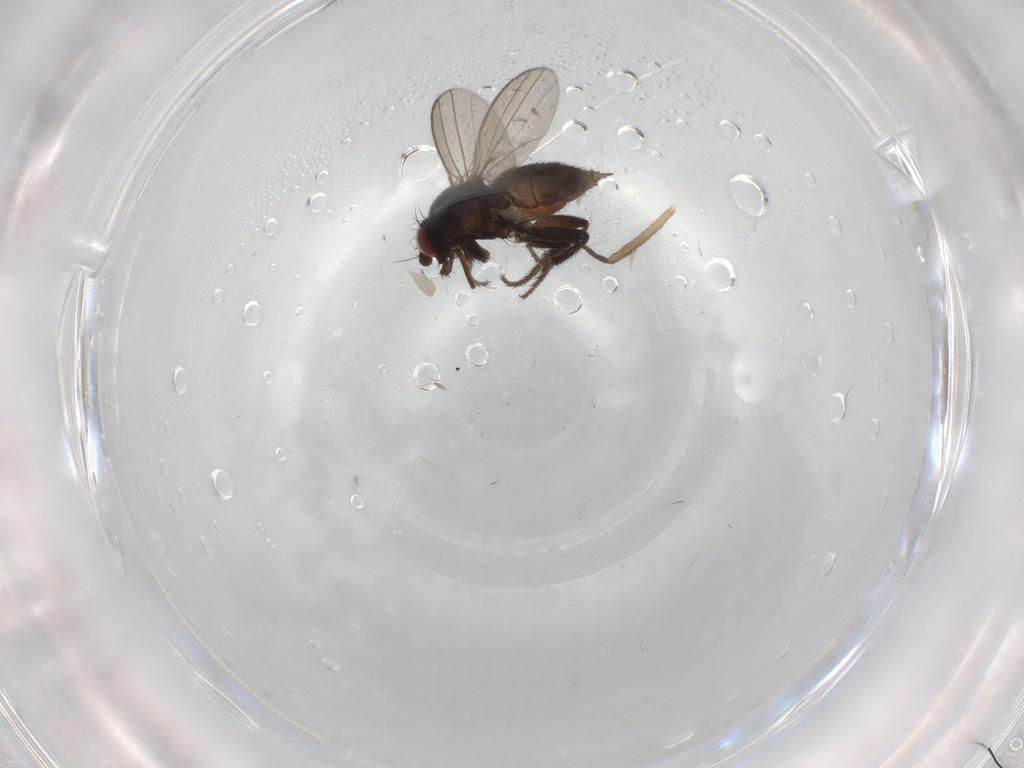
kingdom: Animalia
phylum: Arthropoda
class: Insecta
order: Diptera
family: Cecidomyiidae
